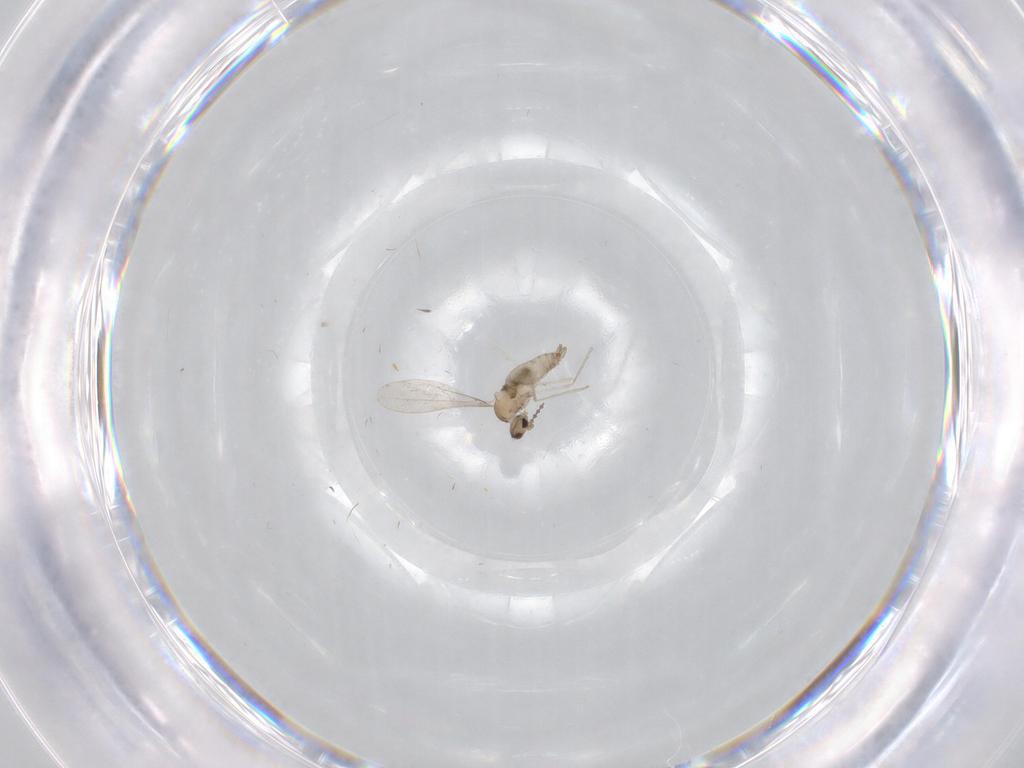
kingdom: Animalia
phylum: Arthropoda
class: Insecta
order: Diptera
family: Cecidomyiidae
